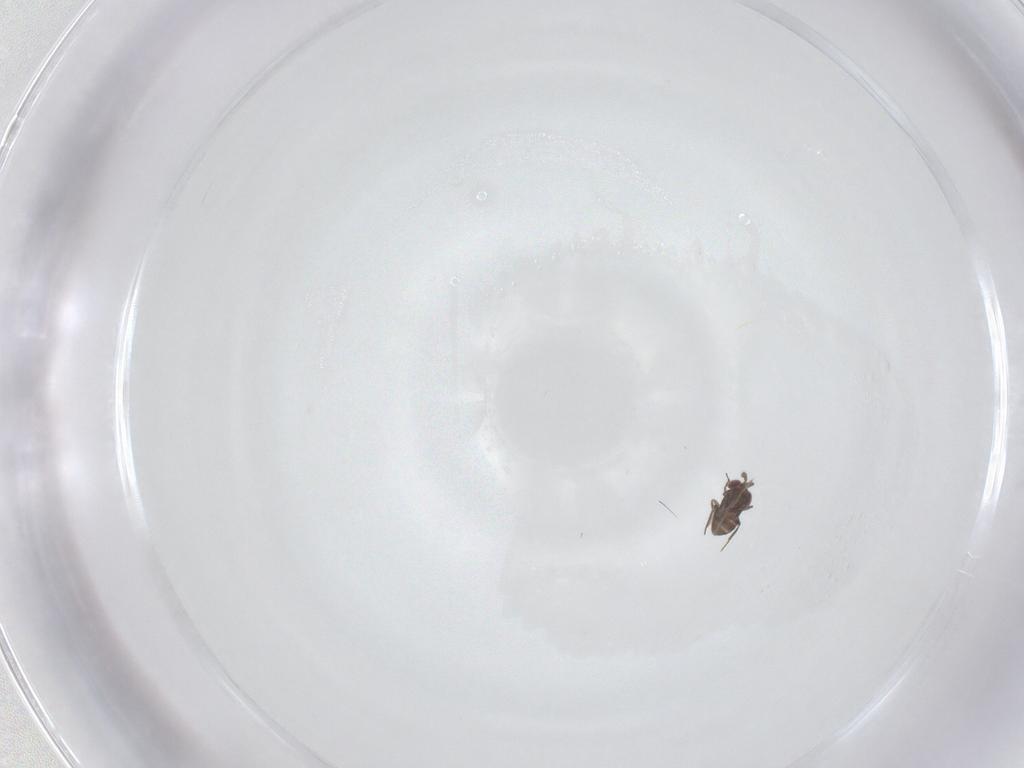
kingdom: Animalia
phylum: Arthropoda
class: Insecta
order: Hymenoptera
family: Trichogrammatidae
